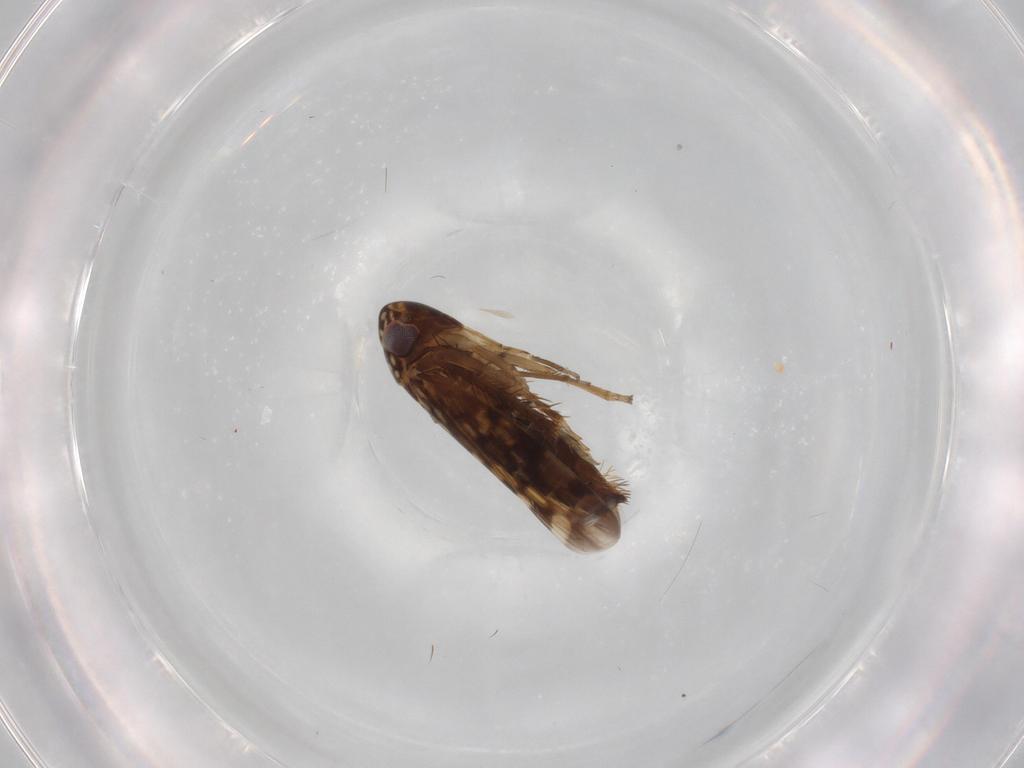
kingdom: Animalia
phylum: Arthropoda
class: Insecta
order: Hemiptera
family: Cicadellidae
